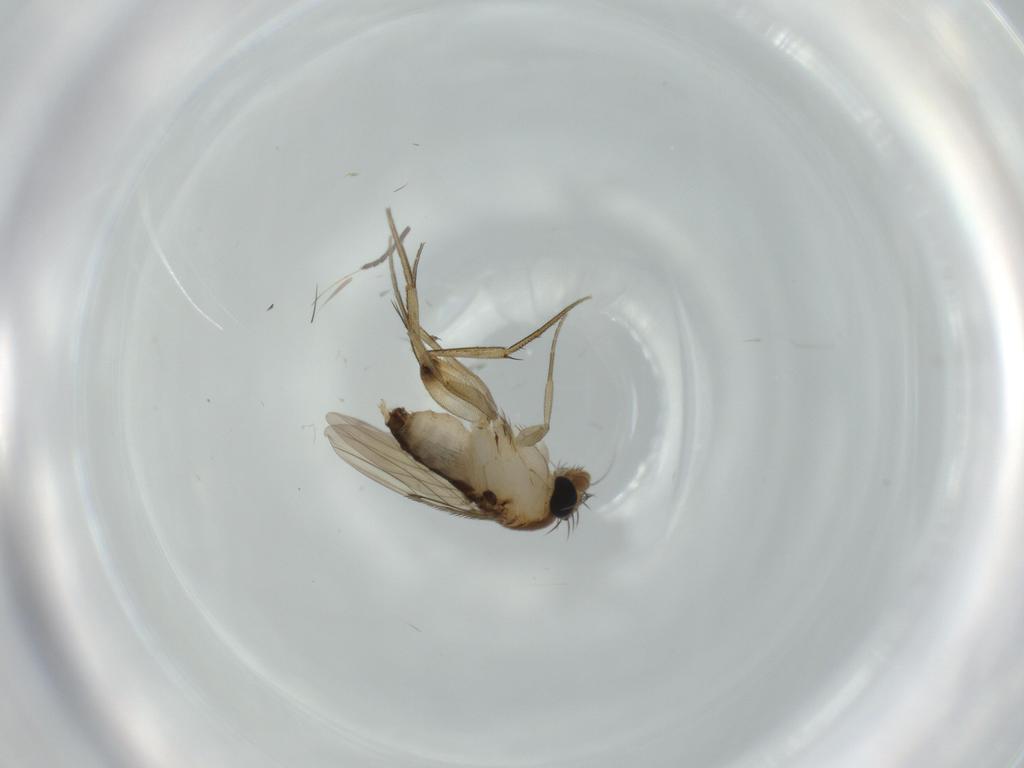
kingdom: Animalia
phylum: Arthropoda
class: Insecta
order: Diptera
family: Phoridae
